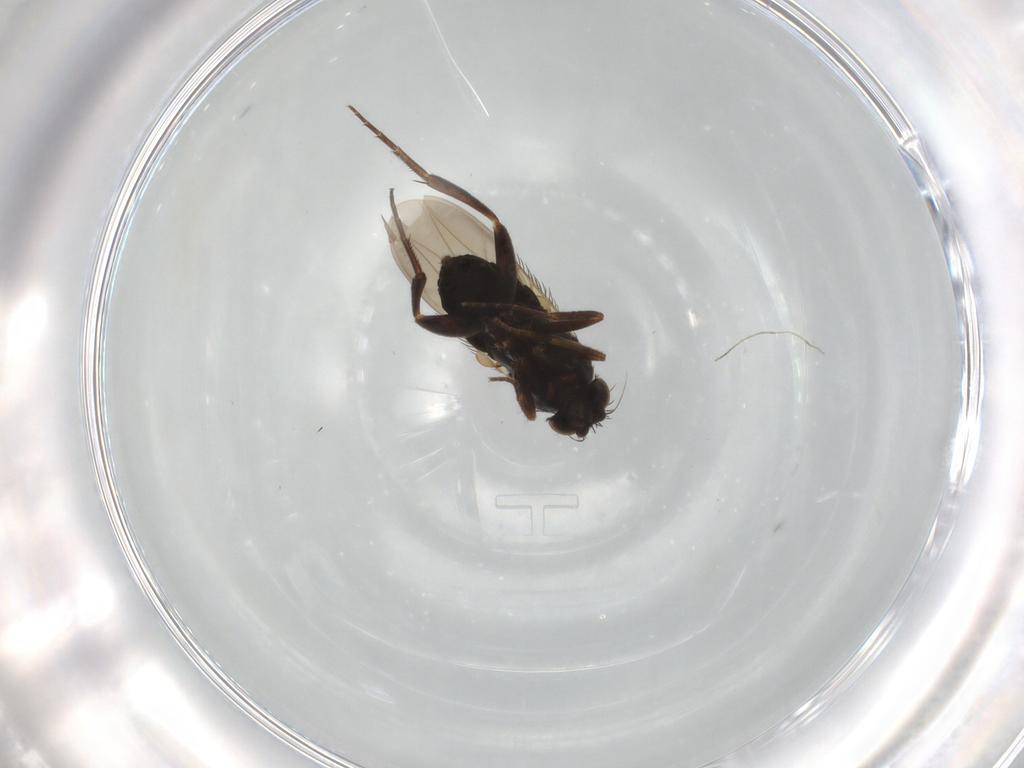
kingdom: Animalia
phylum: Arthropoda
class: Insecta
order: Diptera
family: Phoridae
